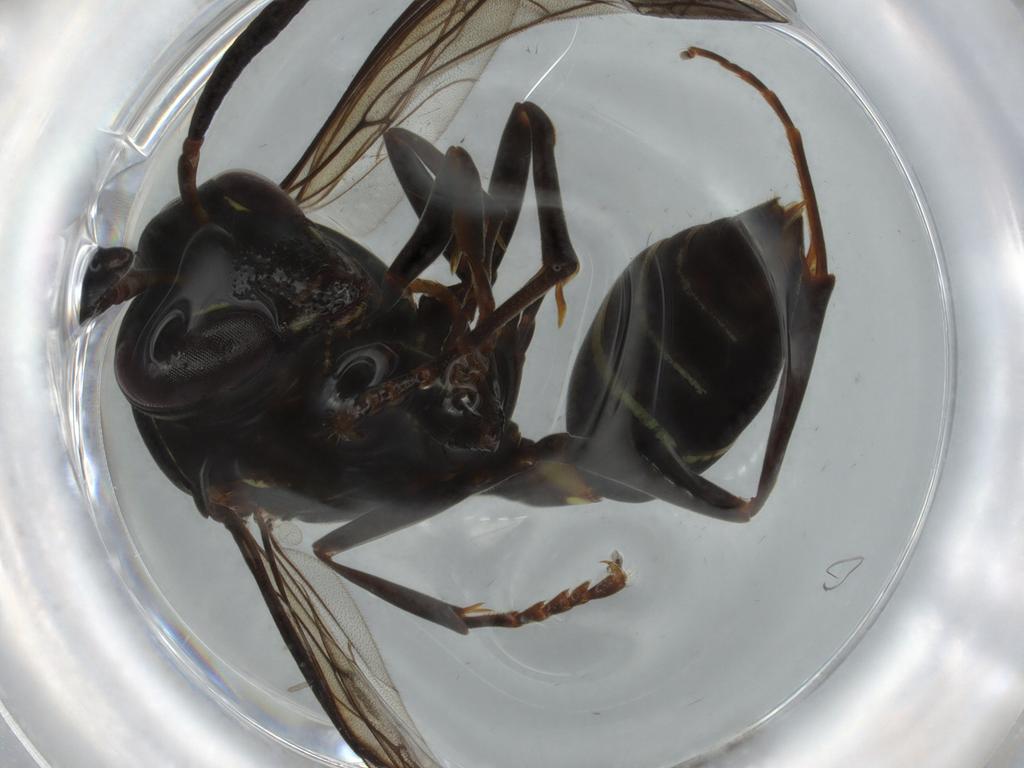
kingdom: Animalia
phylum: Arthropoda
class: Insecta
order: Hymenoptera
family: Vespidae
